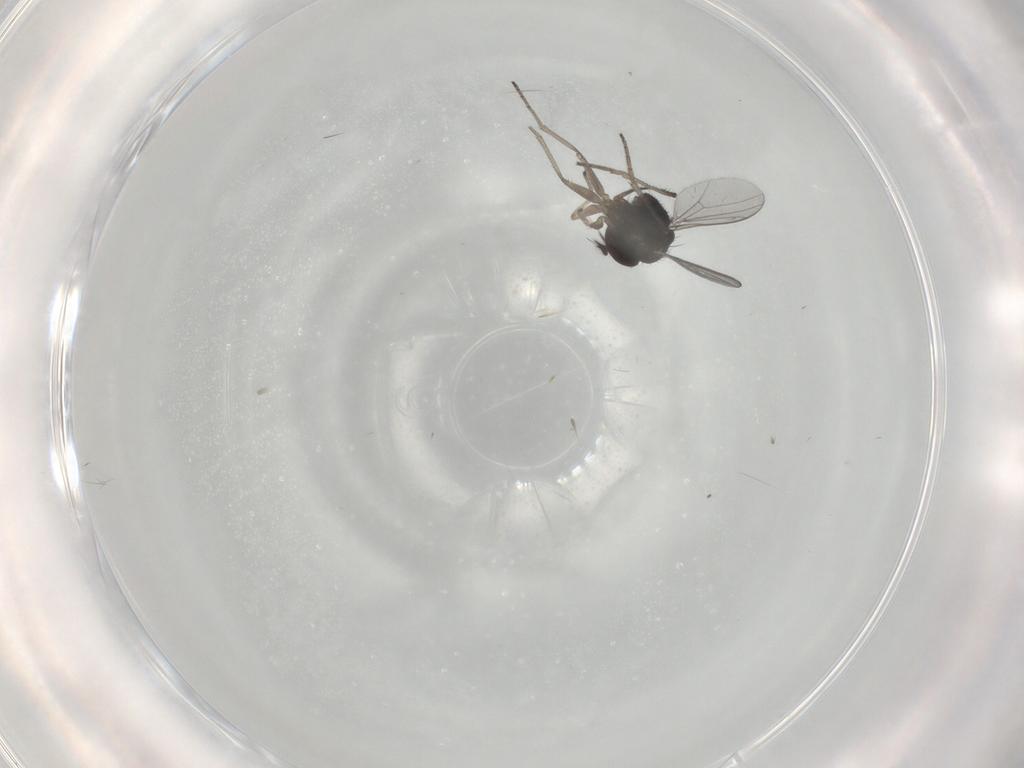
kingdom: Animalia
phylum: Arthropoda
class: Insecta
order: Diptera
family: Dolichopodidae
